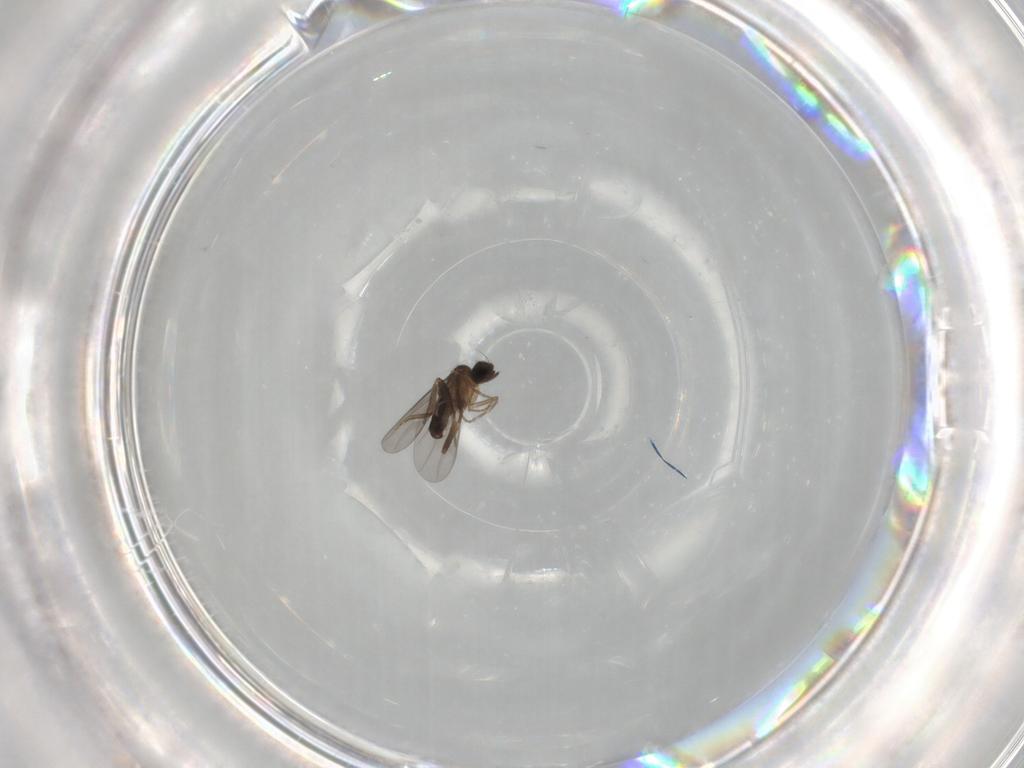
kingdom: Animalia
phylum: Arthropoda
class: Insecta
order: Diptera
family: Phoridae
